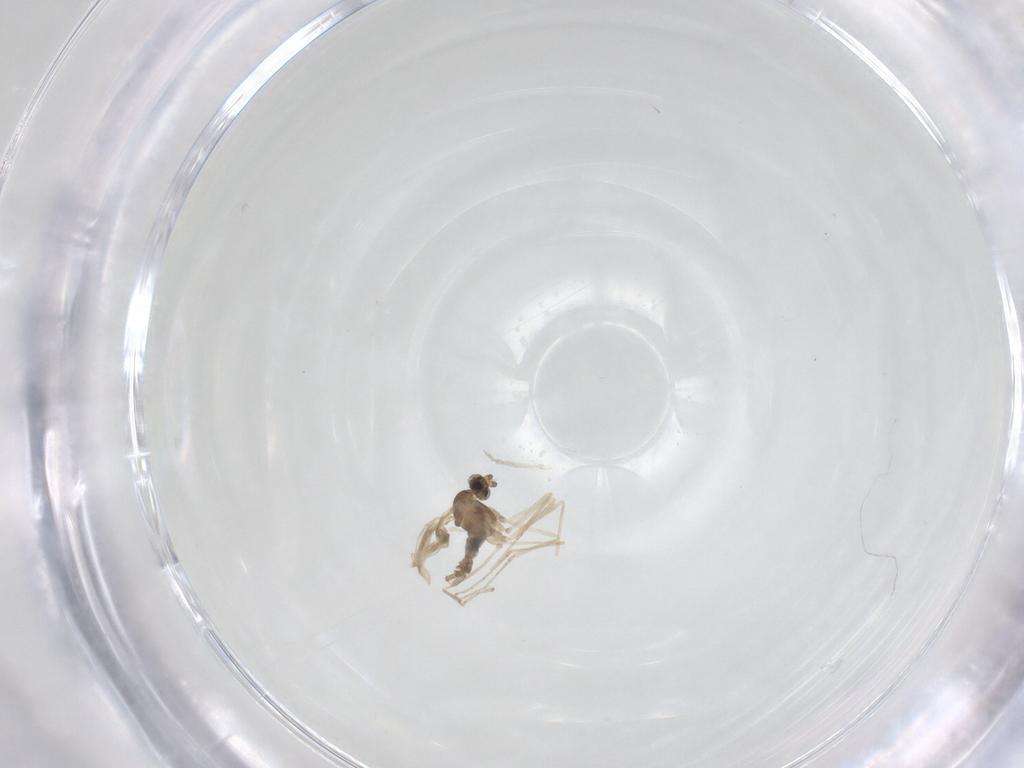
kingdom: Animalia
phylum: Arthropoda
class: Insecta
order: Diptera
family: Cecidomyiidae
